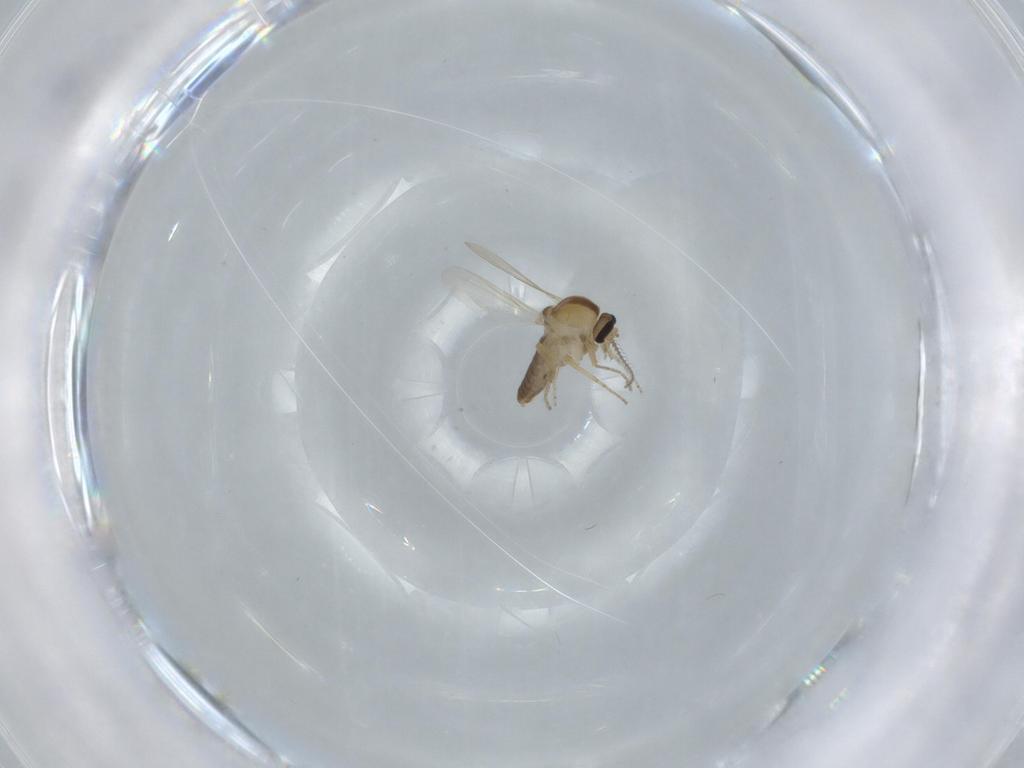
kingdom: Animalia
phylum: Arthropoda
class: Insecta
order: Diptera
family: Ceratopogonidae
